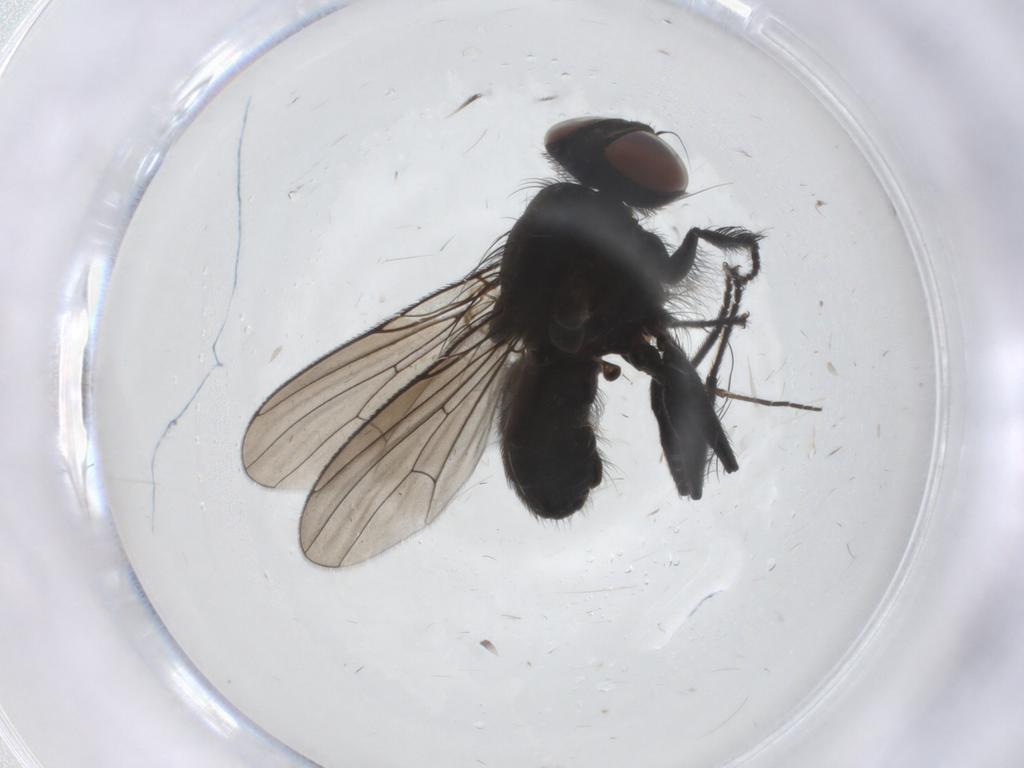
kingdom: Animalia
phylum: Arthropoda
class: Insecta
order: Diptera
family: Muscidae
